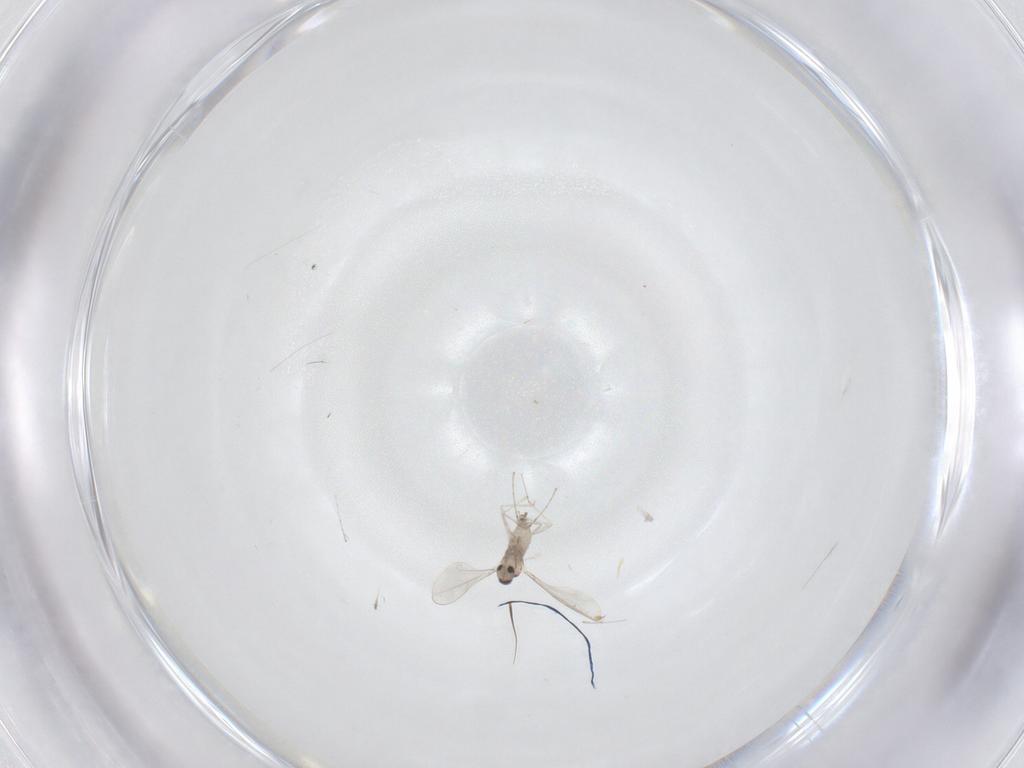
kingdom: Animalia
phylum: Arthropoda
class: Insecta
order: Diptera
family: Cecidomyiidae
